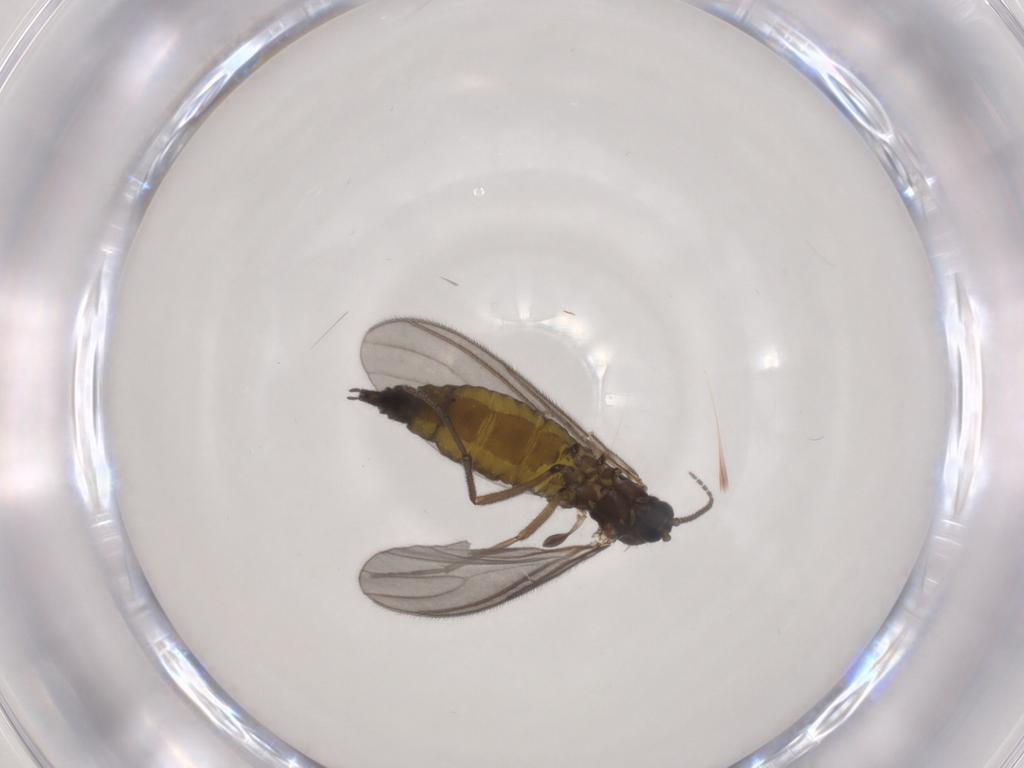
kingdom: Animalia
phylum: Arthropoda
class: Insecta
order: Diptera
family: Sciaridae
